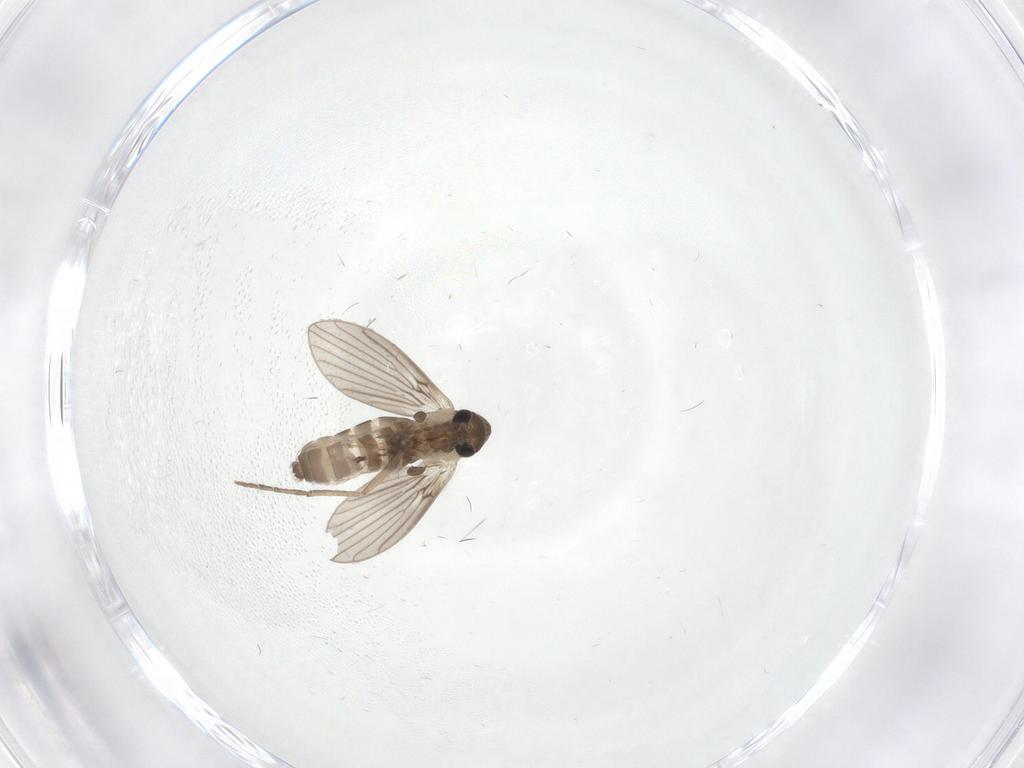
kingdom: Animalia
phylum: Arthropoda
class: Insecta
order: Diptera
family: Psychodidae
